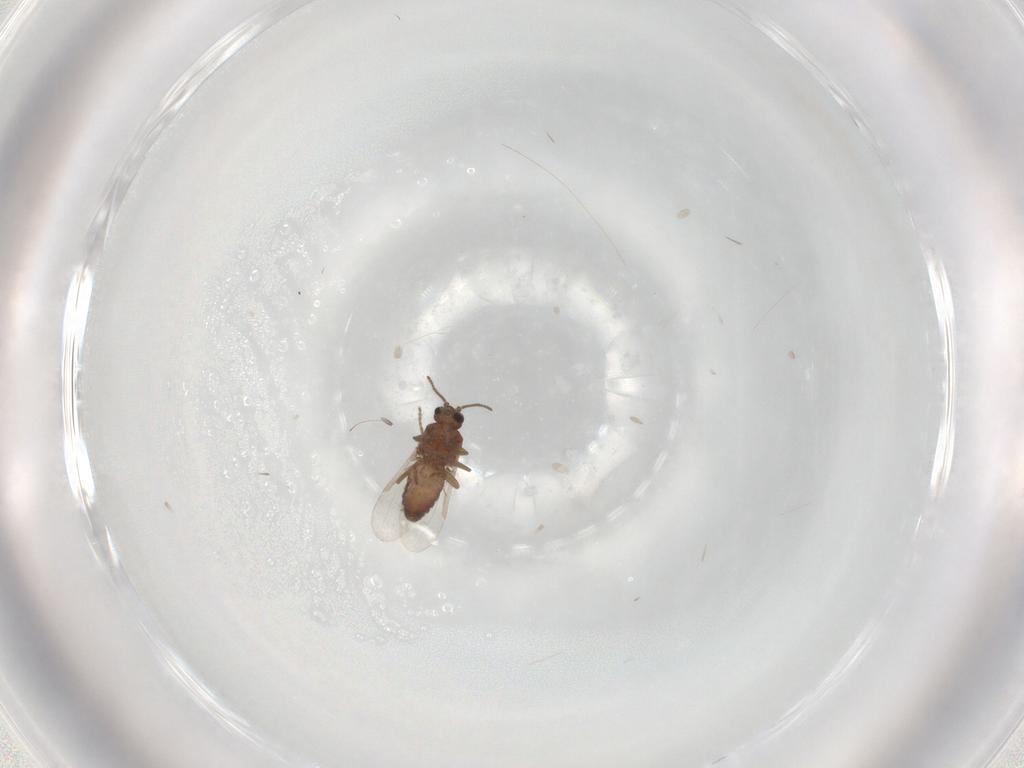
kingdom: Animalia
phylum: Arthropoda
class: Insecta
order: Diptera
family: Ceratopogonidae
